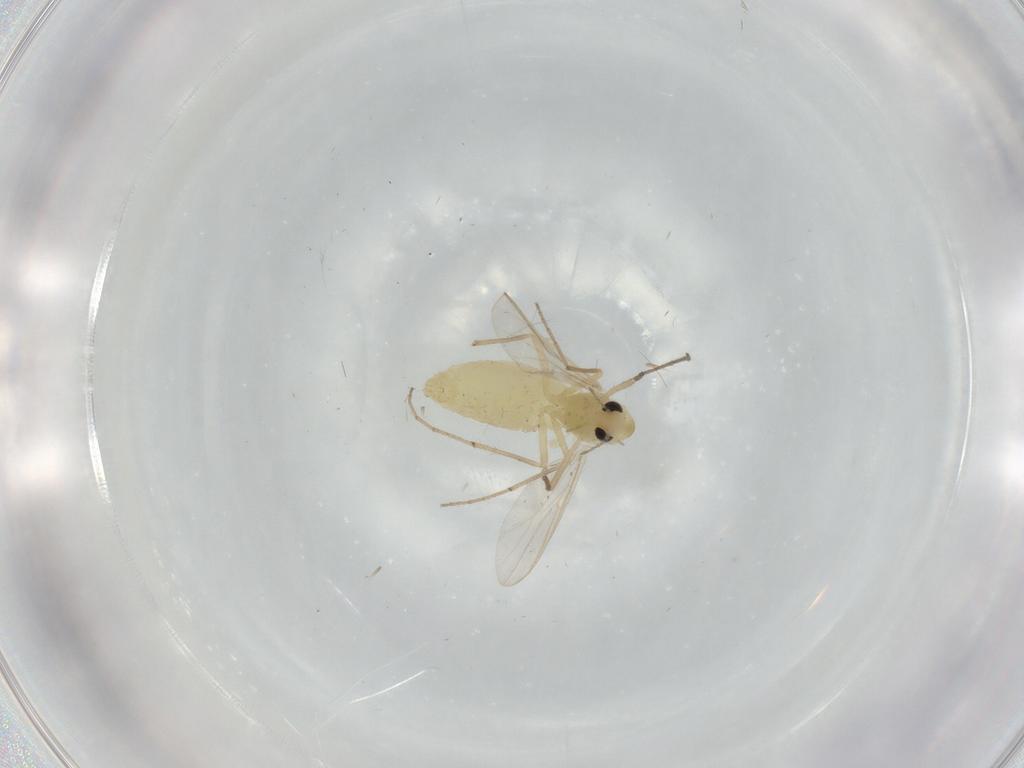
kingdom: Animalia
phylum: Arthropoda
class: Insecta
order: Diptera
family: Chironomidae
